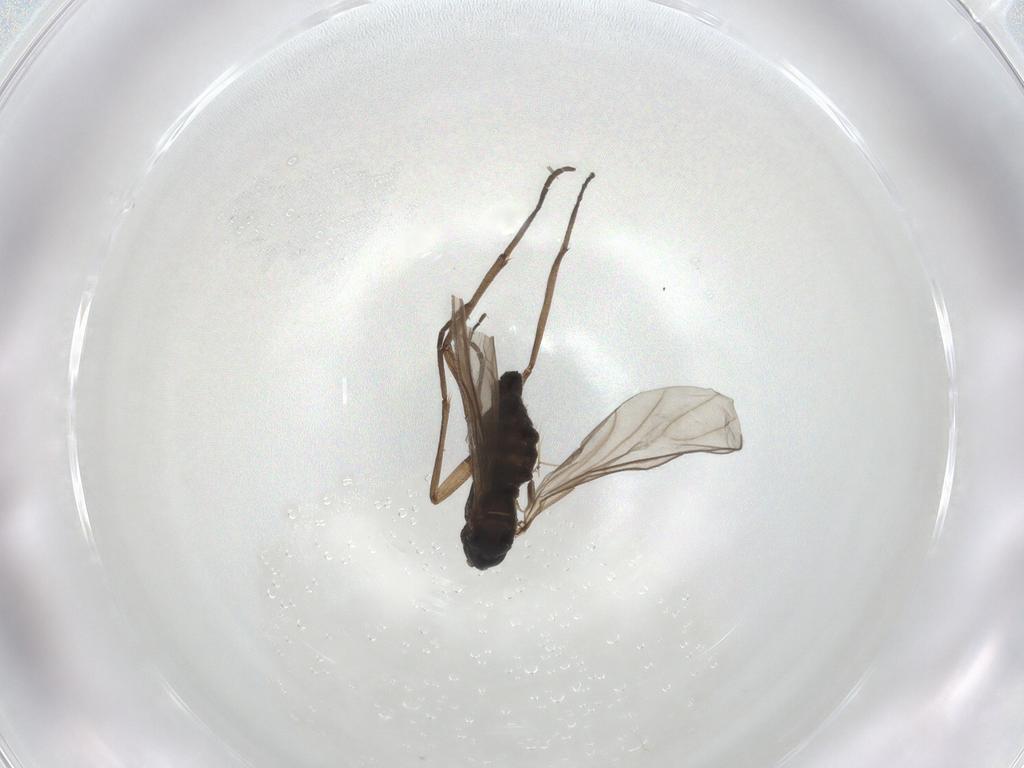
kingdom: Animalia
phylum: Arthropoda
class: Insecta
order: Diptera
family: Sciaridae
